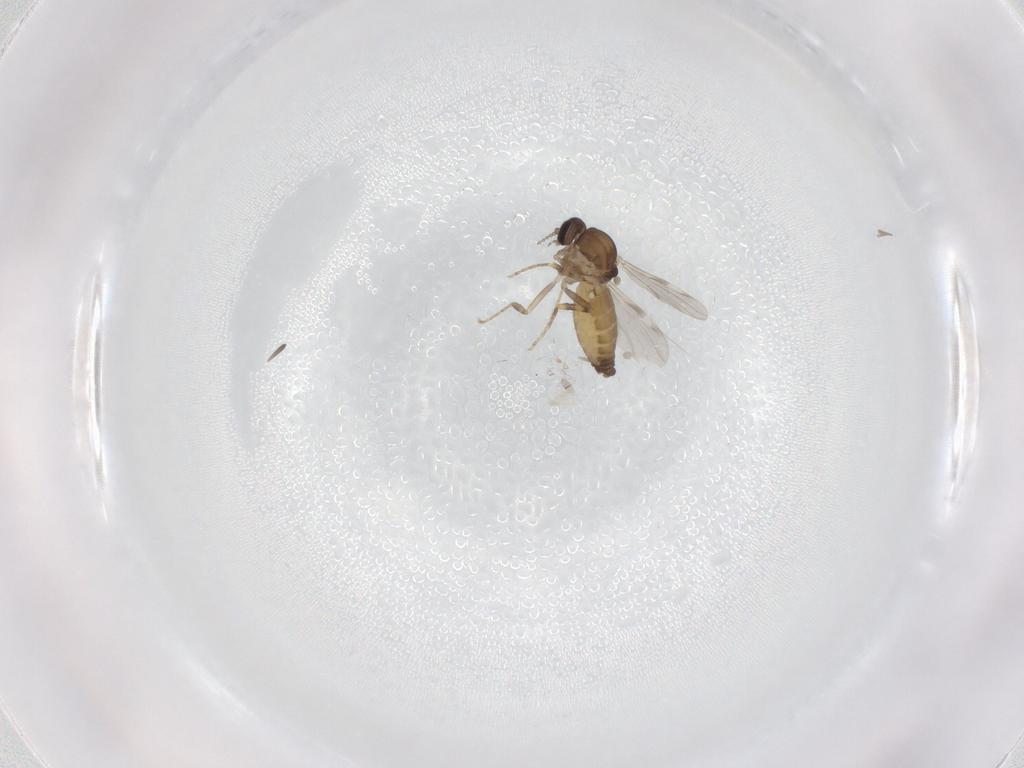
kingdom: Animalia
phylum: Arthropoda
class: Insecta
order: Diptera
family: Ceratopogonidae
